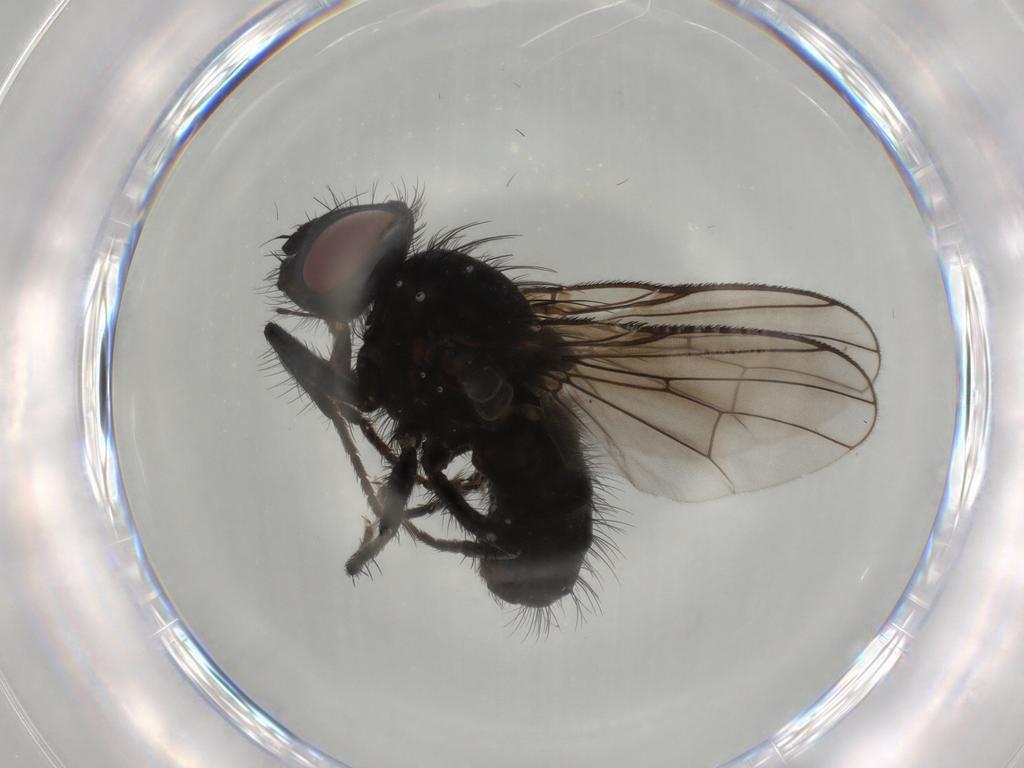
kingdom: Animalia
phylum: Arthropoda
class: Insecta
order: Diptera
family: Muscidae
